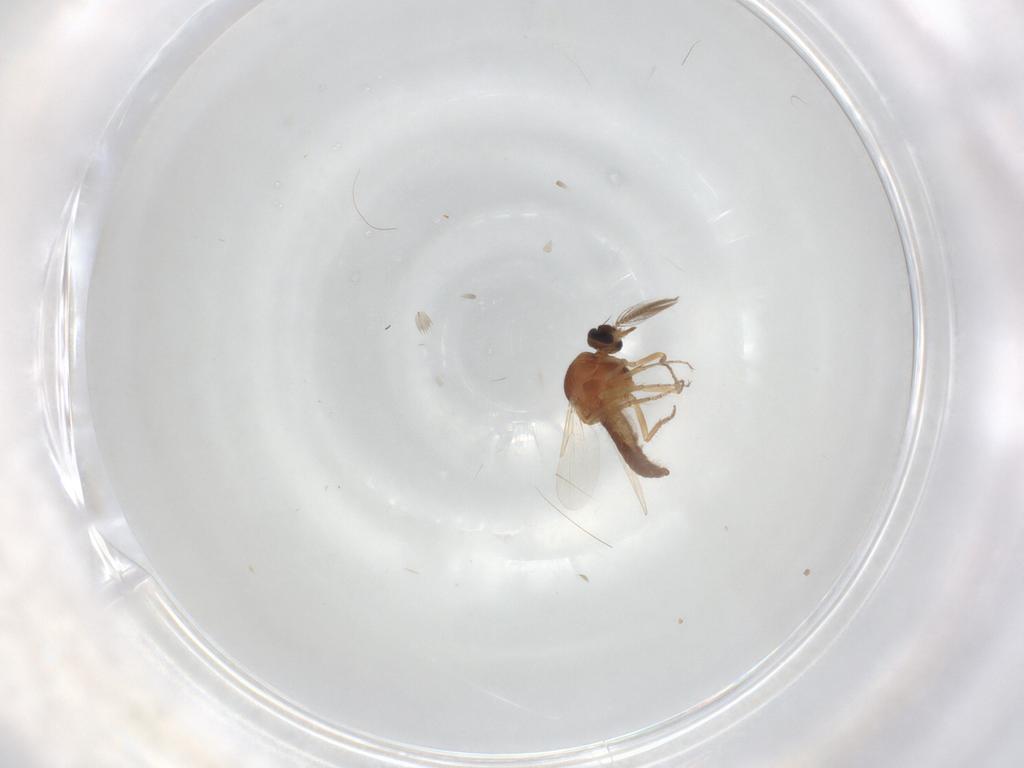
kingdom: Animalia
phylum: Arthropoda
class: Insecta
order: Diptera
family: Ceratopogonidae
